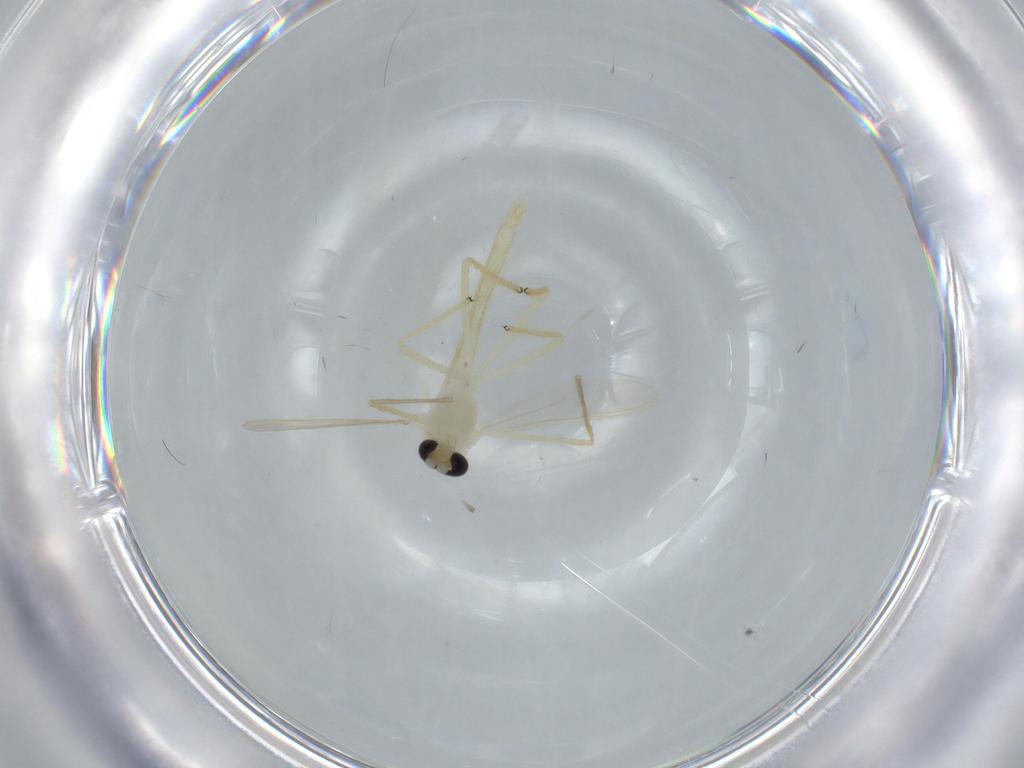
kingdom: Animalia
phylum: Arthropoda
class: Insecta
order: Diptera
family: Chironomidae
